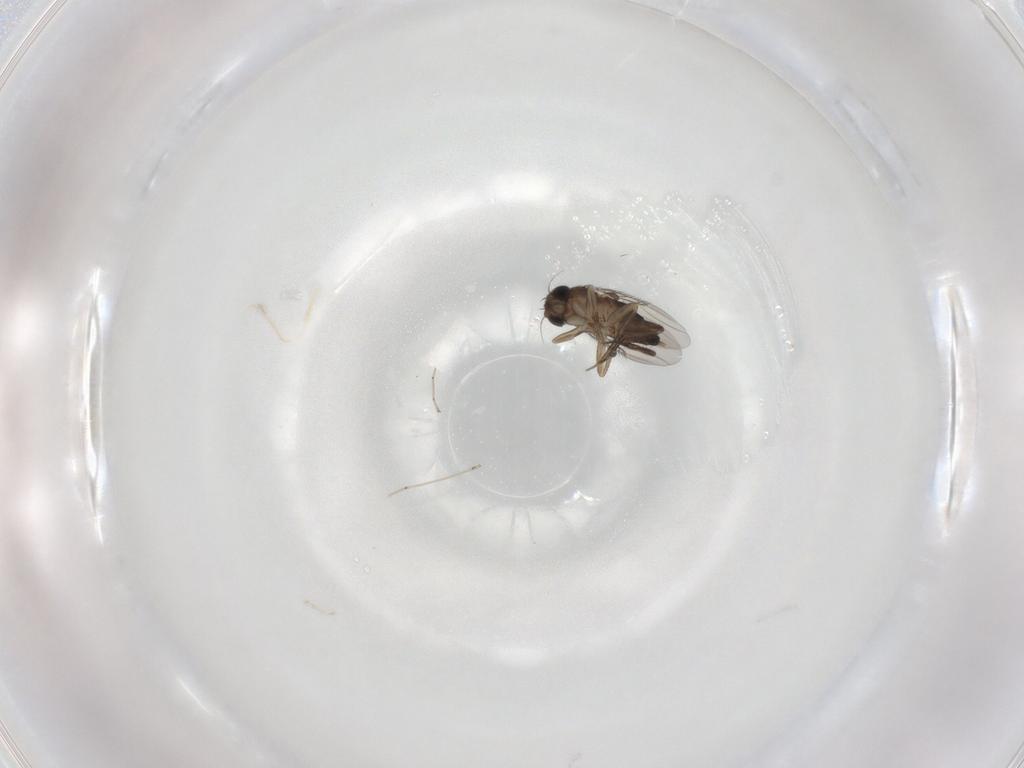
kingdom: Animalia
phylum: Arthropoda
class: Insecta
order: Diptera
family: Phoridae
